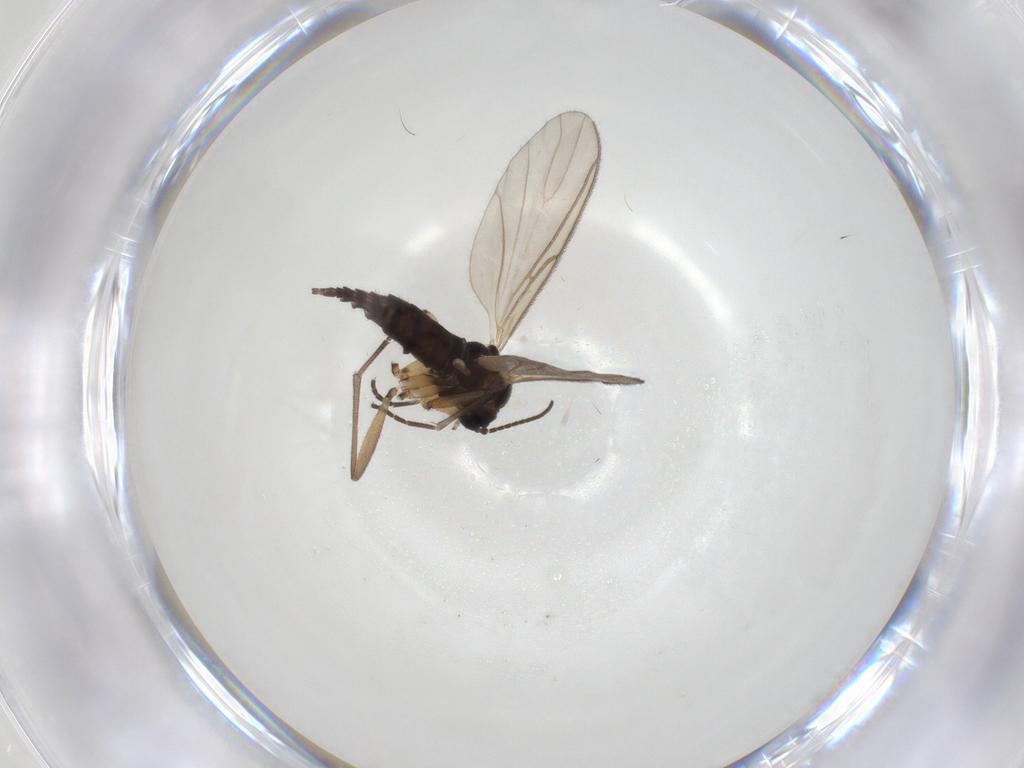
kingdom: Animalia
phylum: Arthropoda
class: Insecta
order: Diptera
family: Sciaridae
